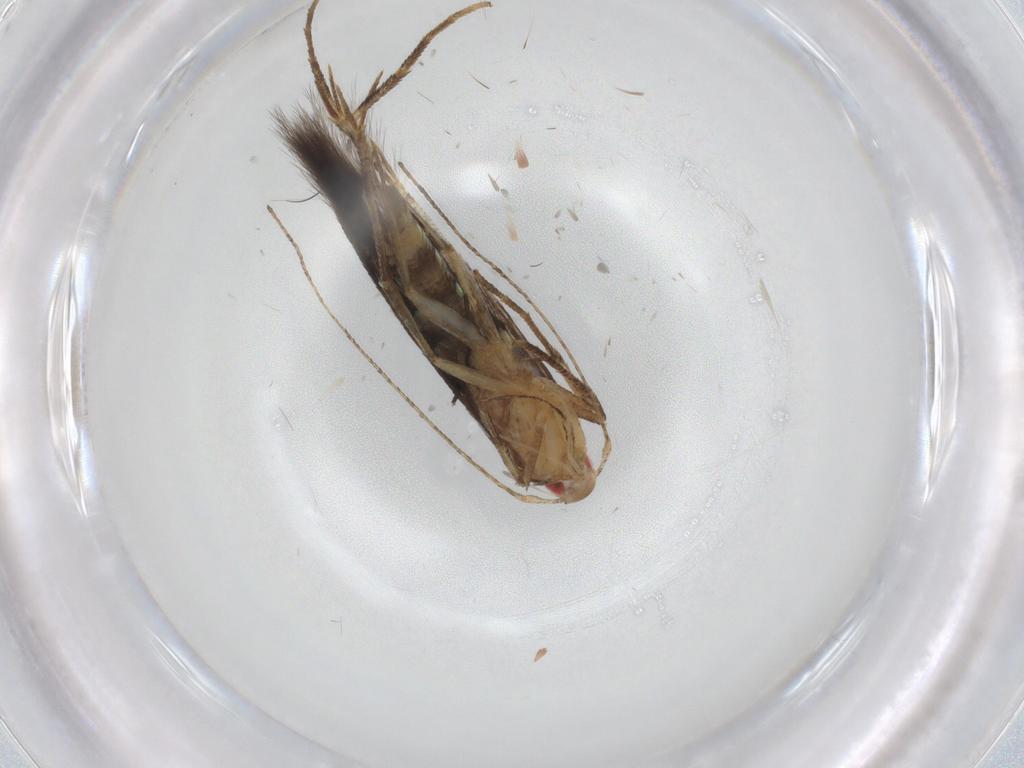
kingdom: Animalia
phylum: Arthropoda
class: Insecta
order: Lepidoptera
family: Cosmopterigidae
